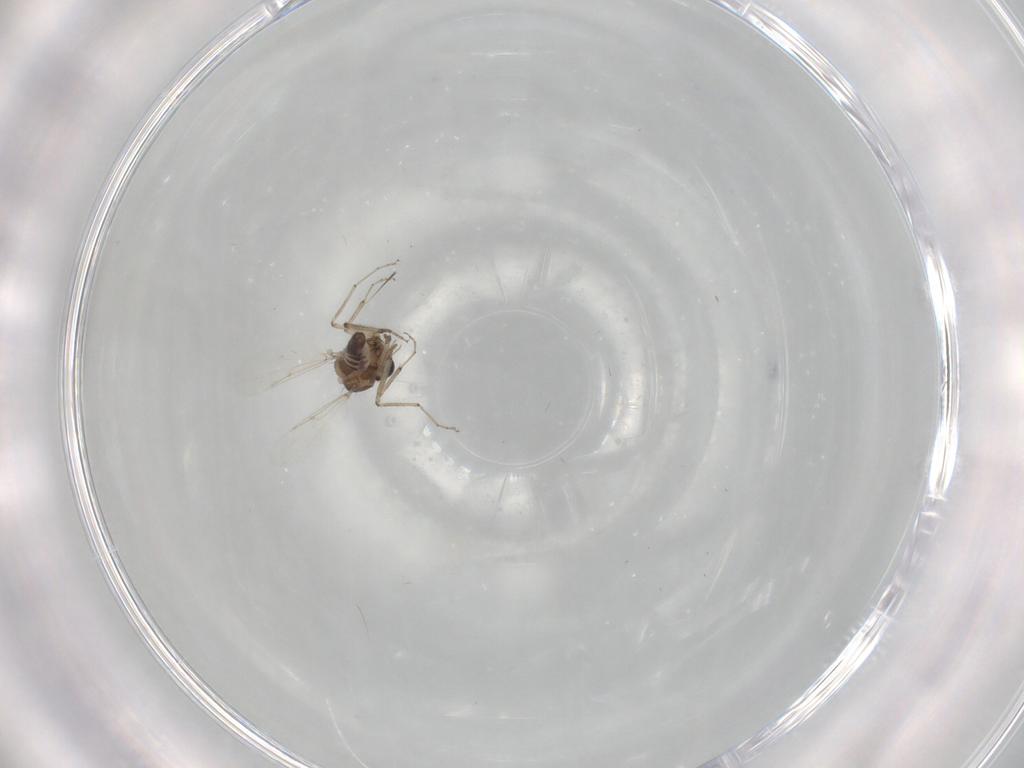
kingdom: Animalia
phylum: Arthropoda
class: Insecta
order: Diptera
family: Ceratopogonidae
